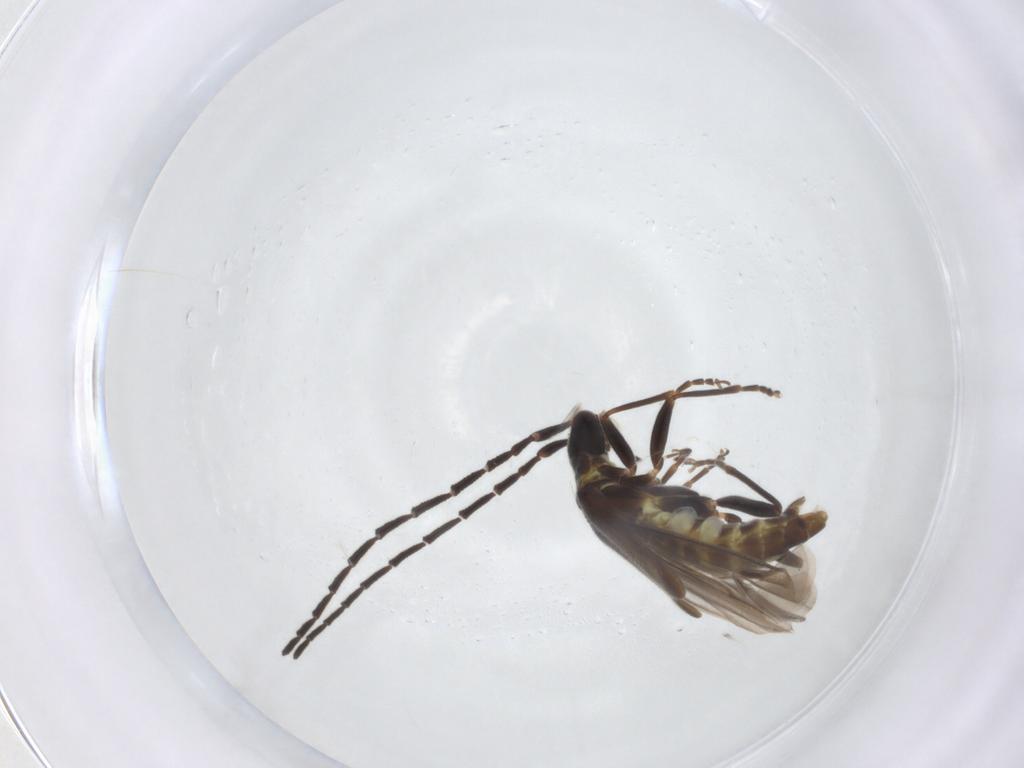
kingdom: Animalia
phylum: Arthropoda
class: Insecta
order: Coleoptera
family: Cantharidae
